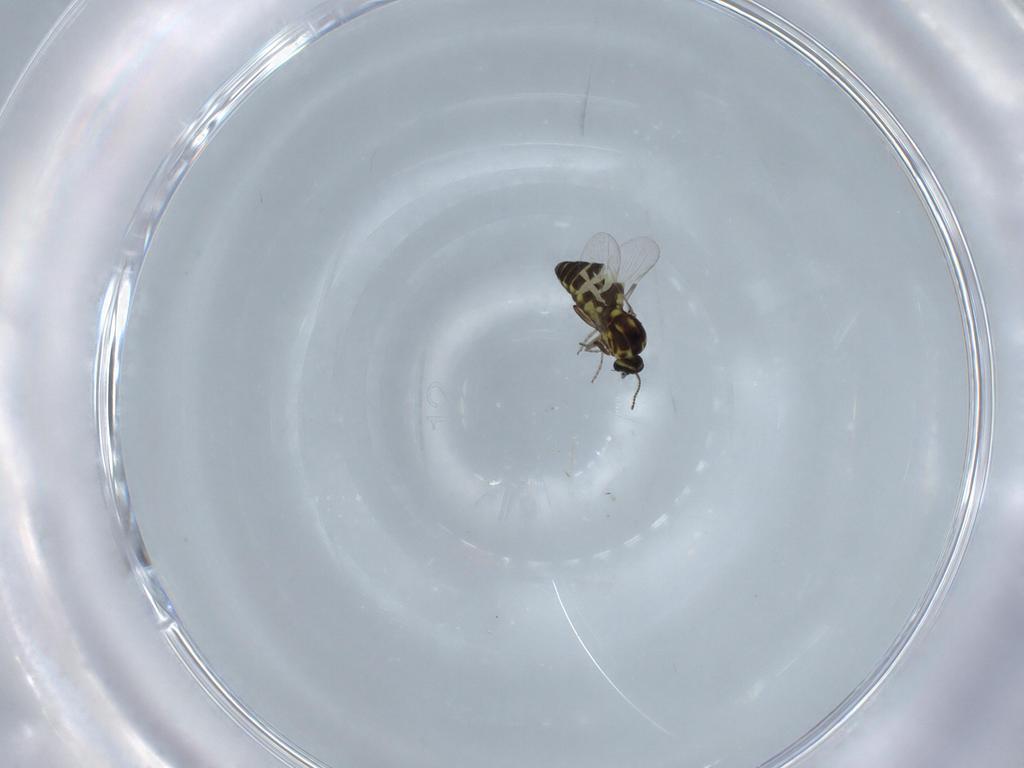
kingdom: Animalia
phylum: Arthropoda
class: Insecta
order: Diptera
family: Ceratopogonidae
